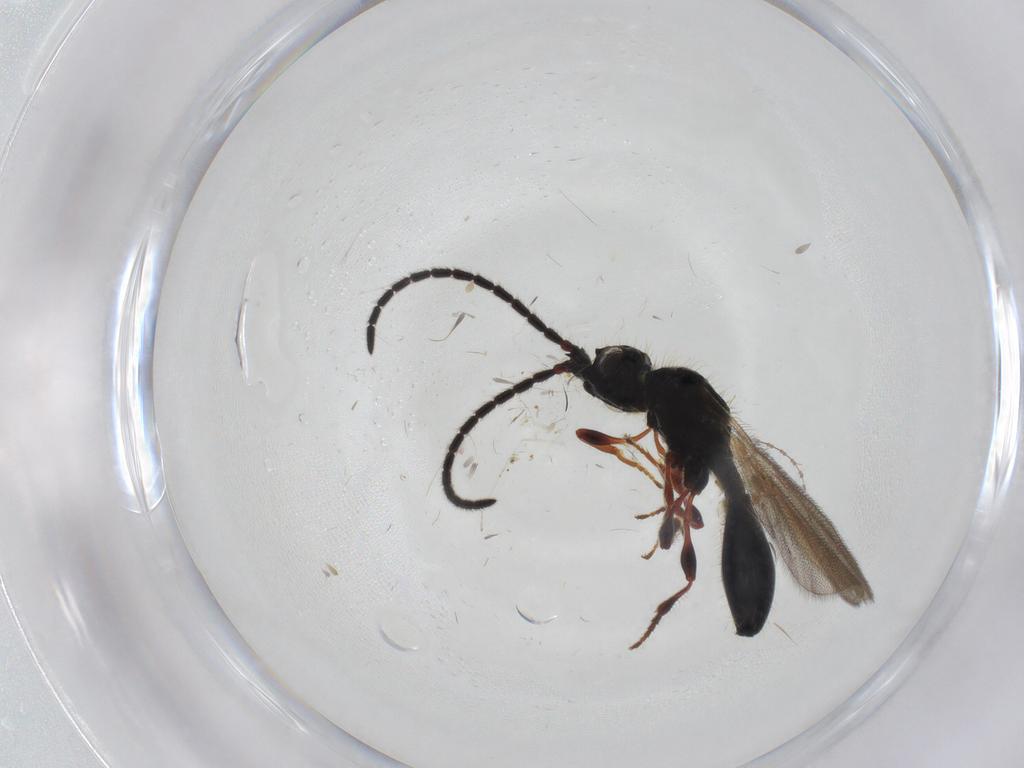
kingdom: Animalia
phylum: Arthropoda
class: Insecta
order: Hymenoptera
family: Diapriidae
